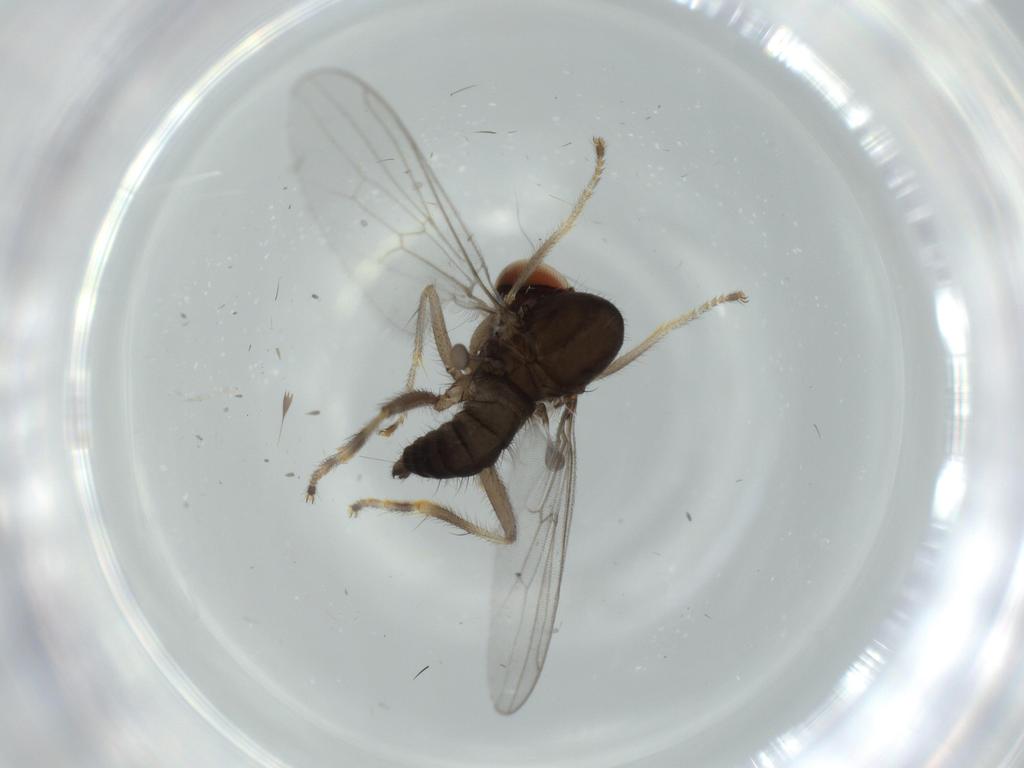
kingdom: Animalia
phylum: Arthropoda
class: Insecta
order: Diptera
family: Hybotidae
